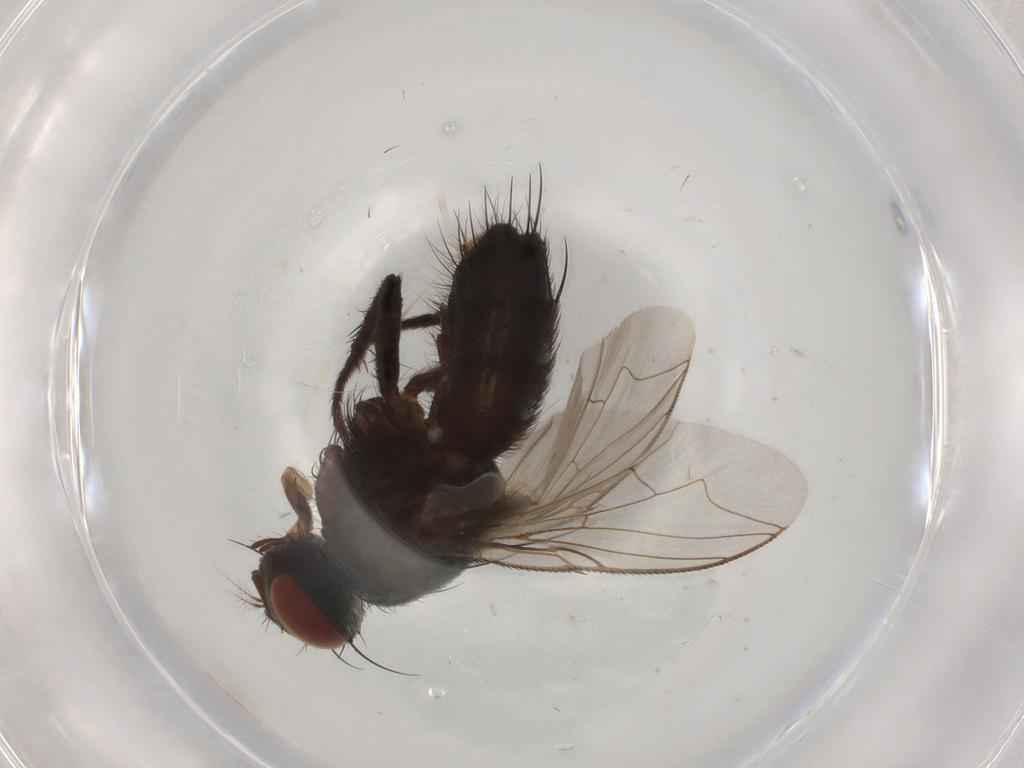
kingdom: Animalia
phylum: Arthropoda
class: Insecta
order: Diptera
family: Sarcophagidae
